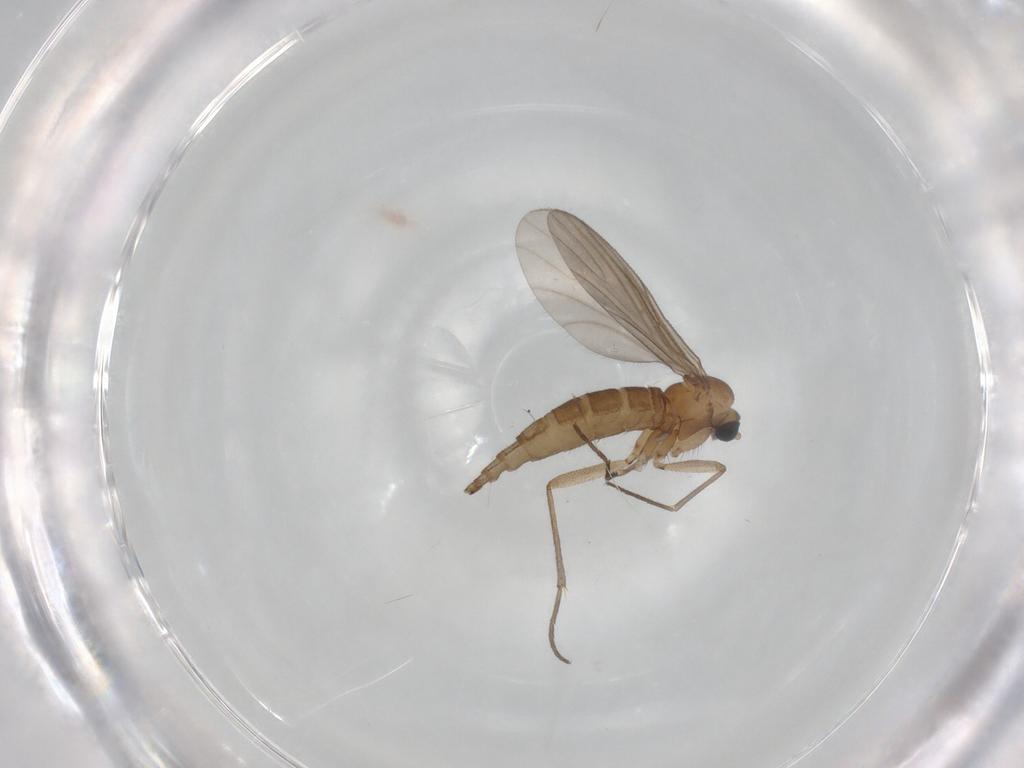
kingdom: Animalia
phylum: Arthropoda
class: Insecta
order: Diptera
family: Sciaridae
